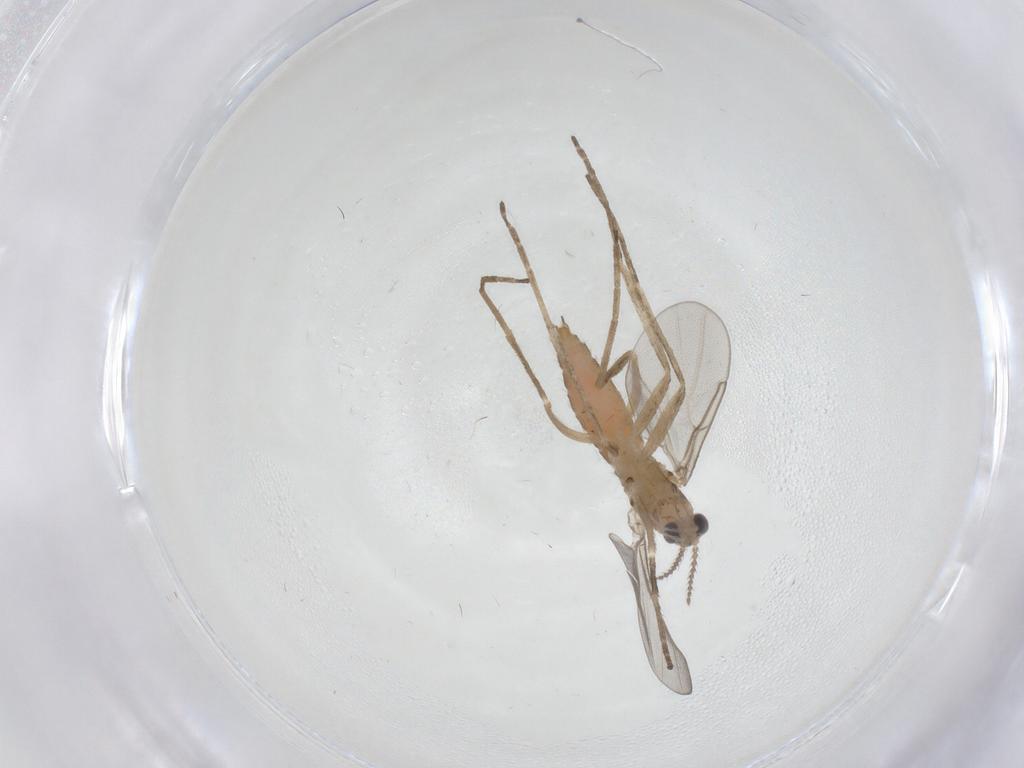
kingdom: Animalia
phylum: Arthropoda
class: Insecta
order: Diptera
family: Cecidomyiidae
